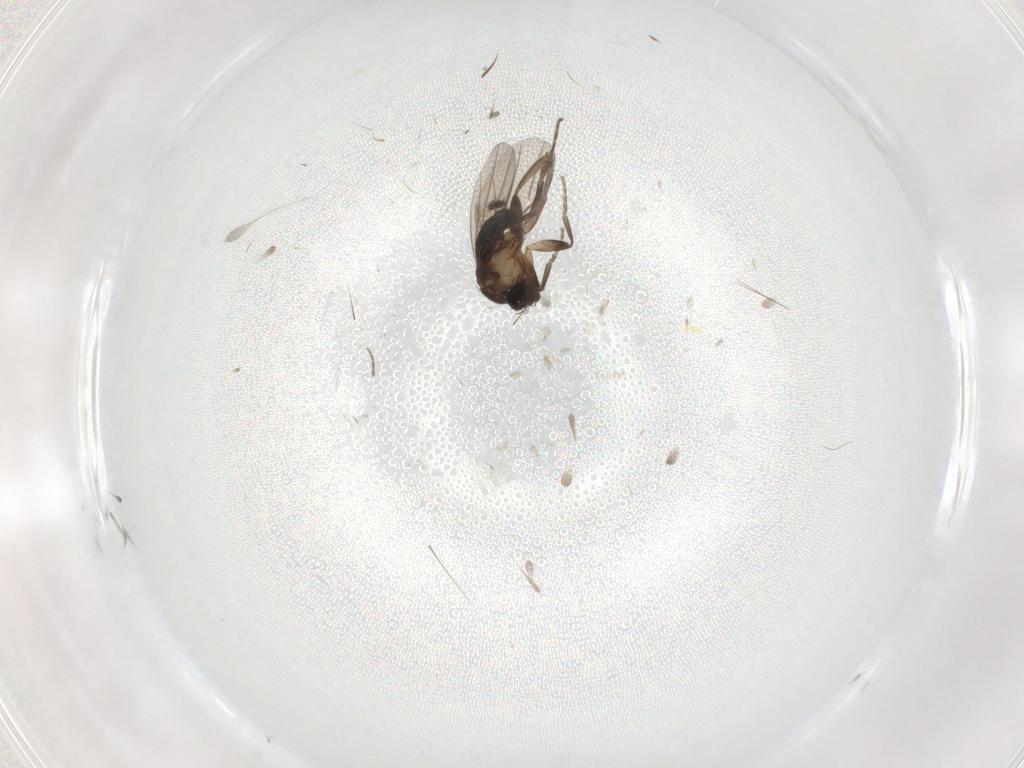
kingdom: Animalia
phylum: Arthropoda
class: Insecta
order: Diptera
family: Phoridae
